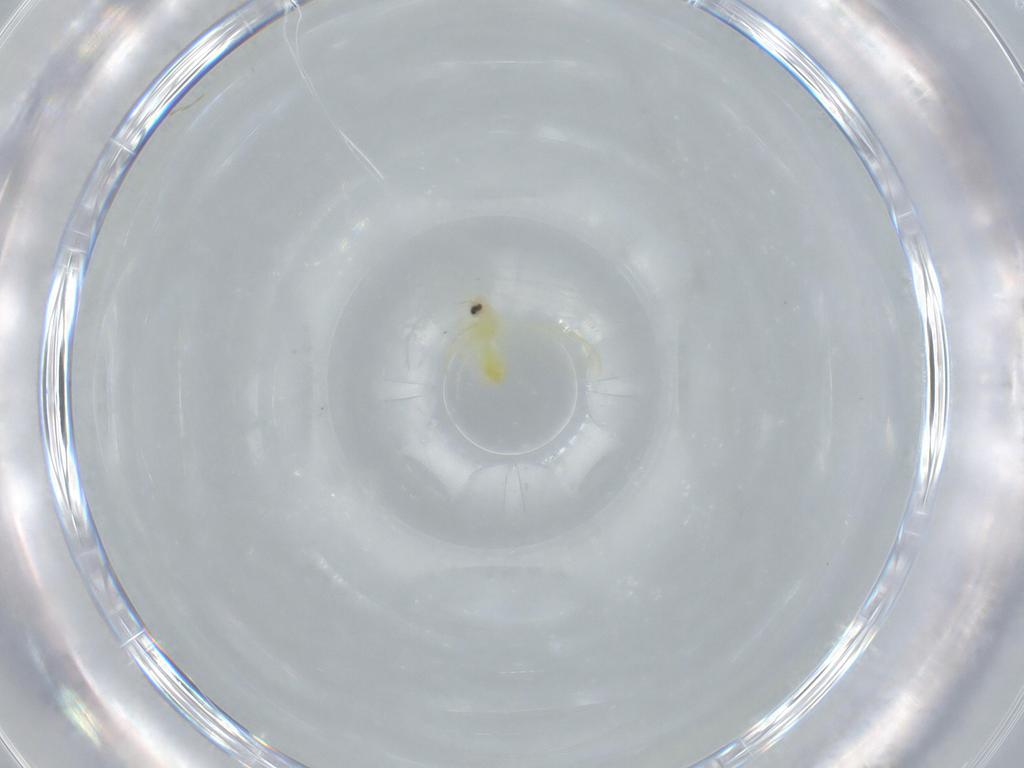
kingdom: Animalia
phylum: Arthropoda
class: Insecta
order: Hemiptera
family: Aleyrodidae
